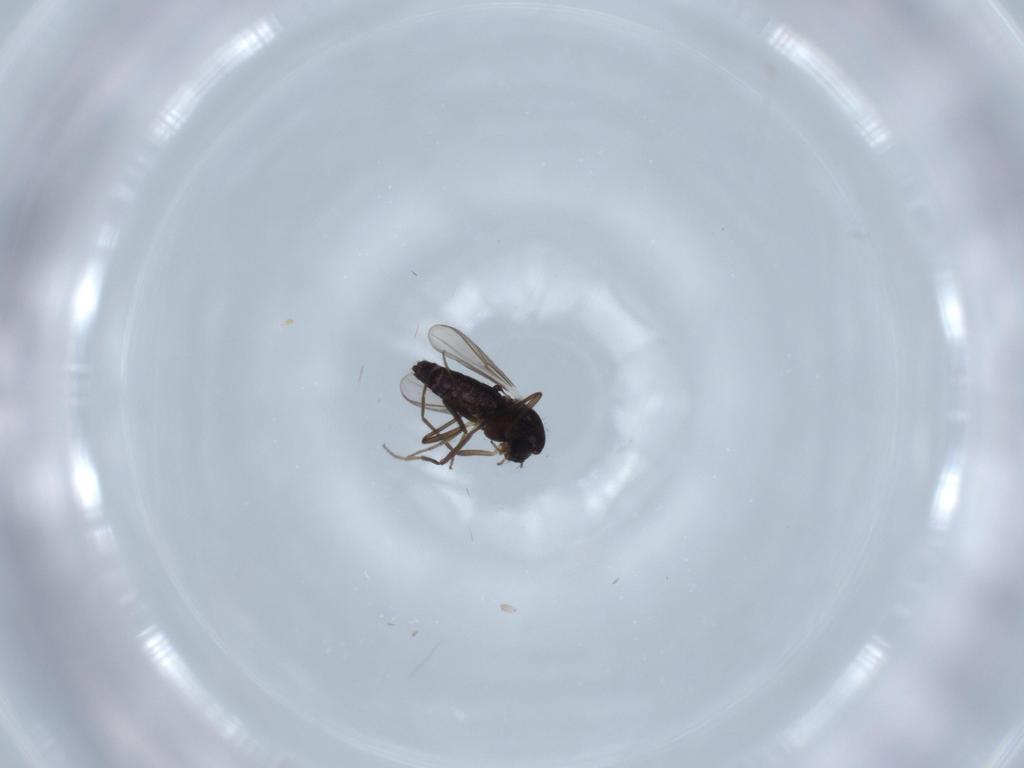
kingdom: Animalia
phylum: Arthropoda
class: Insecta
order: Diptera
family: Chironomidae
